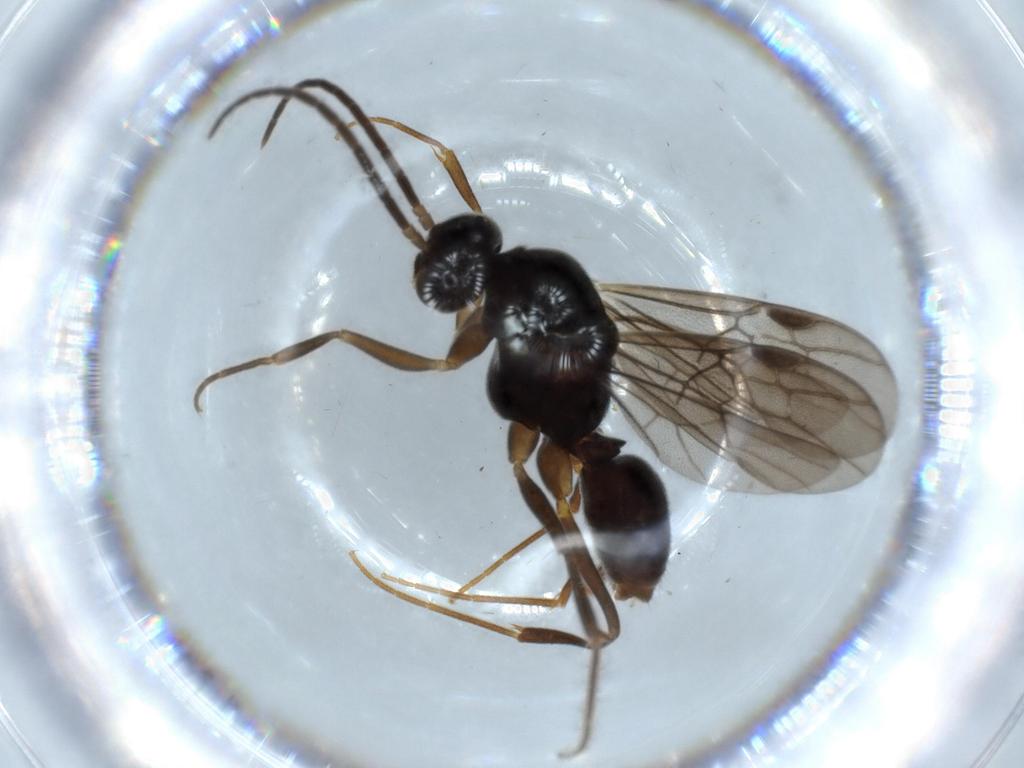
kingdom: Animalia
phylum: Arthropoda
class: Insecta
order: Hymenoptera
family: Formicidae
